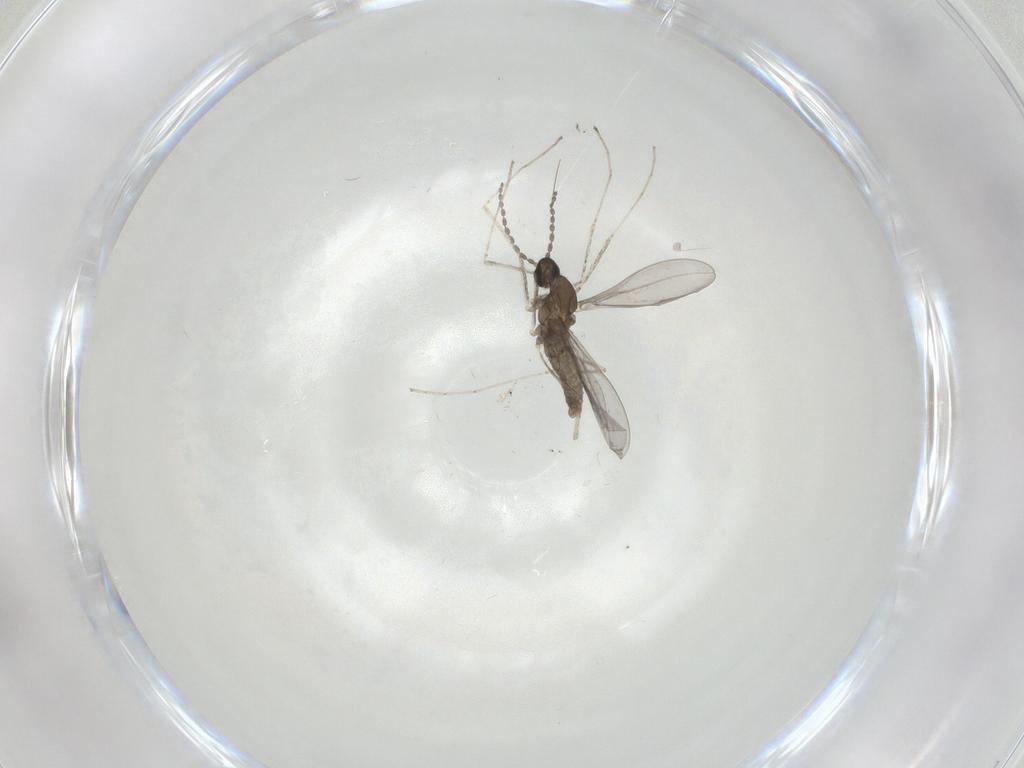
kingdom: Animalia
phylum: Arthropoda
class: Insecta
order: Diptera
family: Cecidomyiidae
